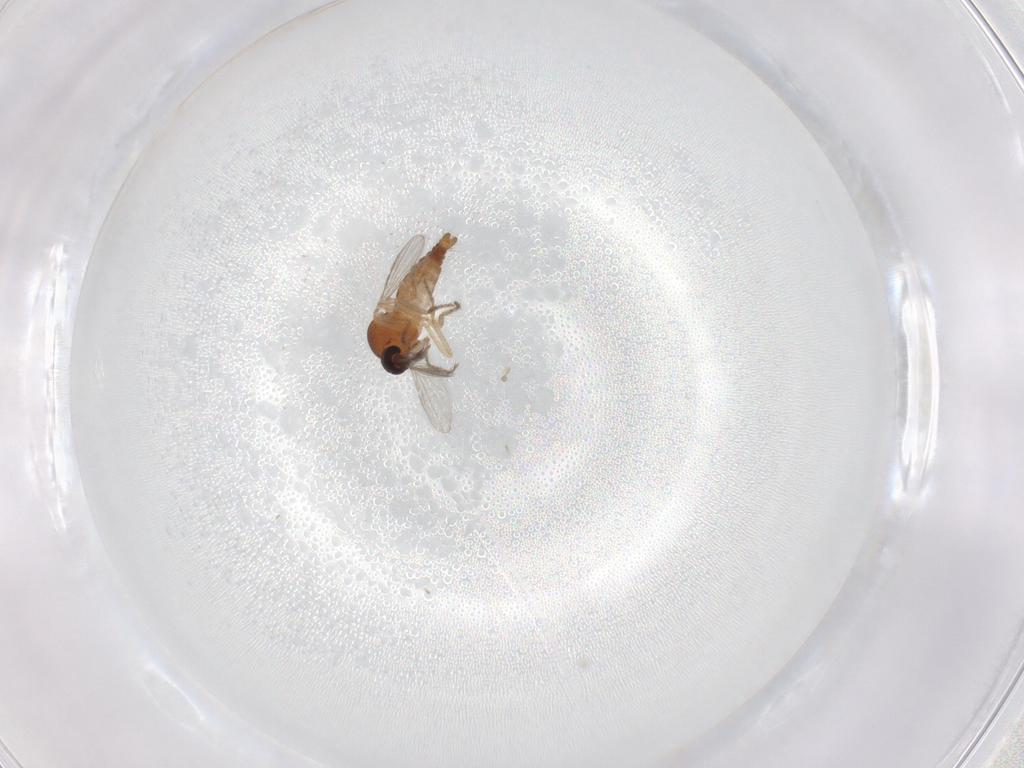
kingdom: Animalia
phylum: Arthropoda
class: Insecta
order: Diptera
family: Ceratopogonidae
